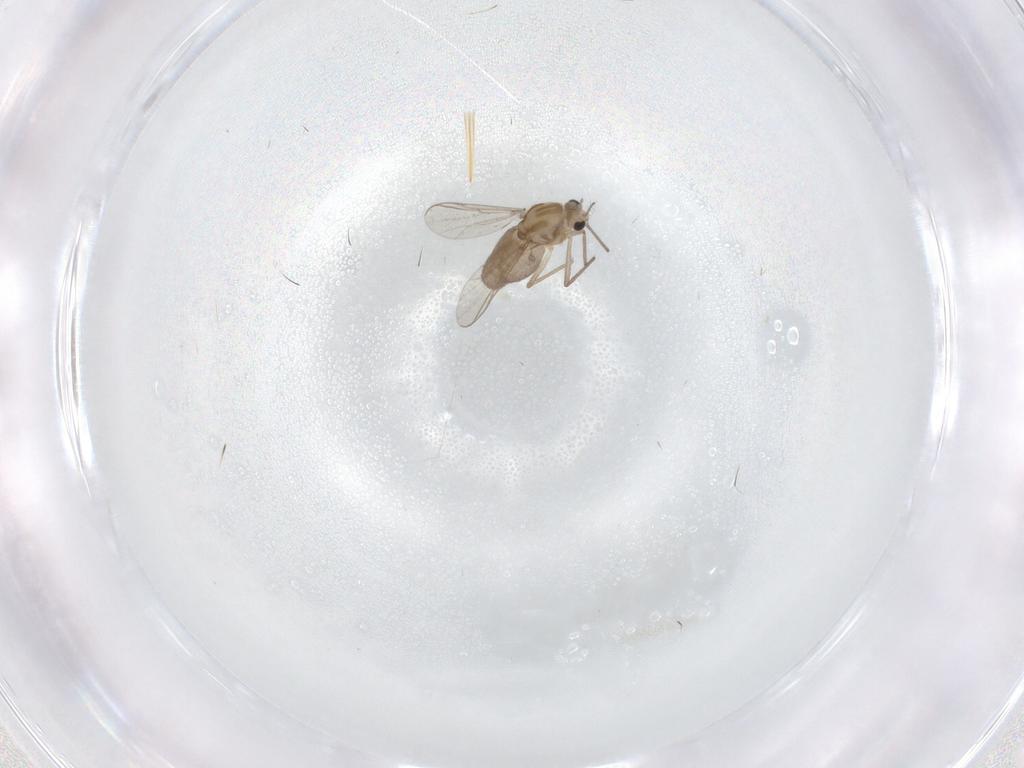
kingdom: Animalia
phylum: Arthropoda
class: Insecta
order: Diptera
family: Chironomidae
